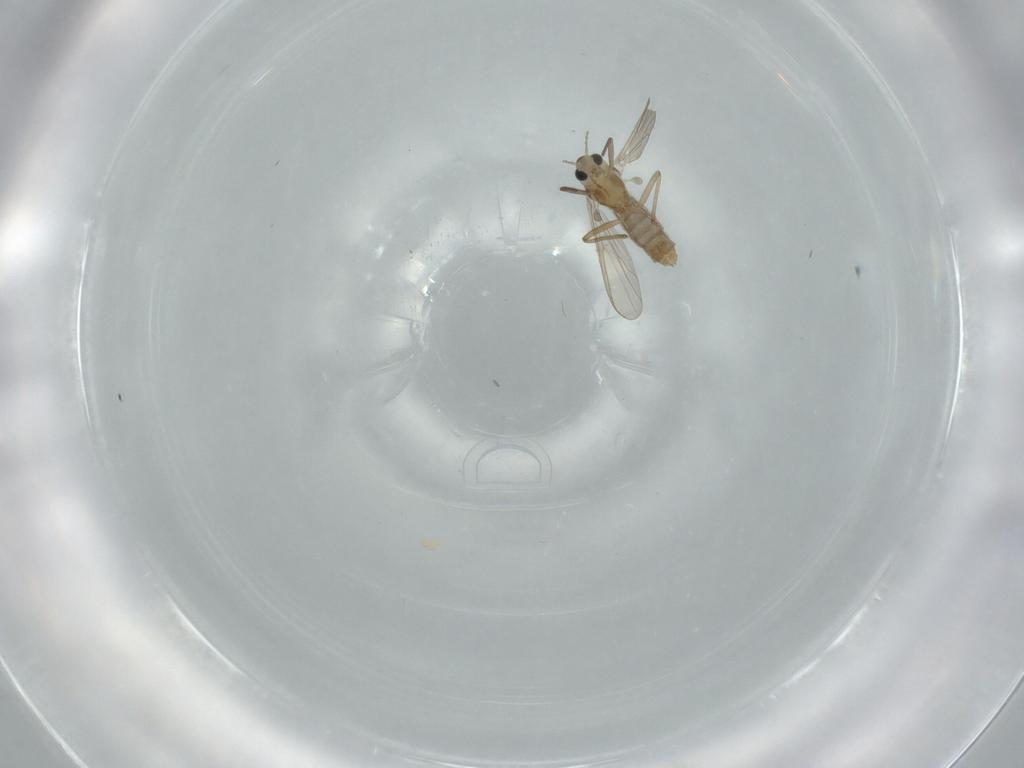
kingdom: Animalia
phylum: Arthropoda
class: Insecta
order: Diptera
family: Chironomidae
